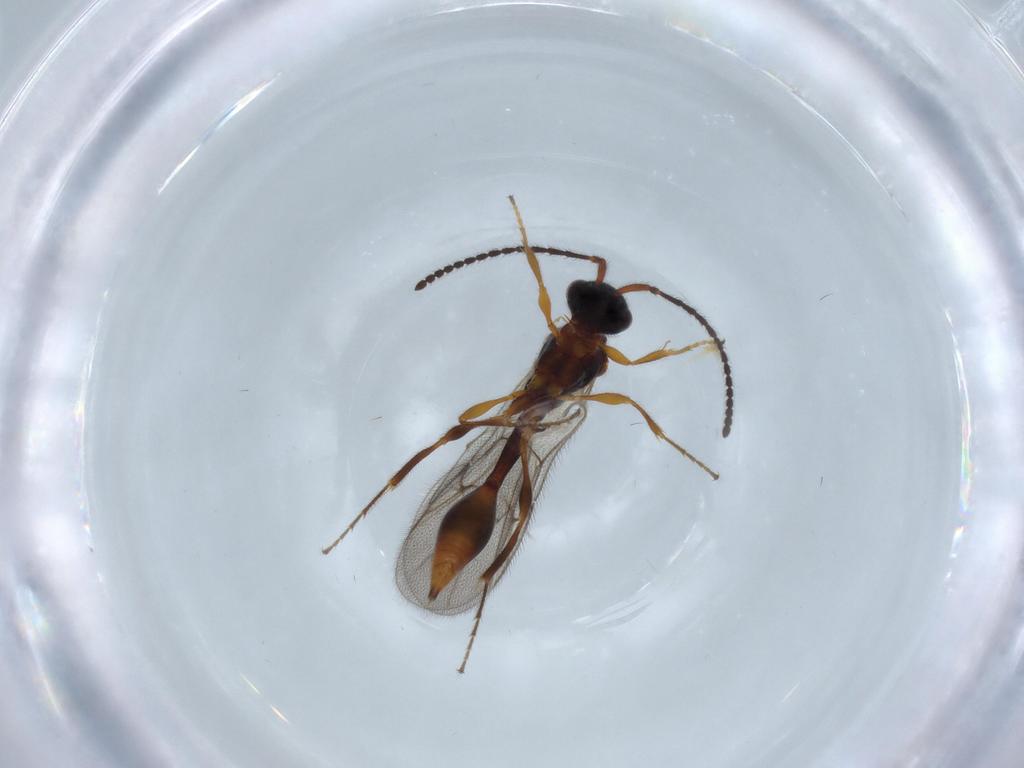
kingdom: Animalia
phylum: Arthropoda
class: Insecta
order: Hymenoptera
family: Diapriidae
